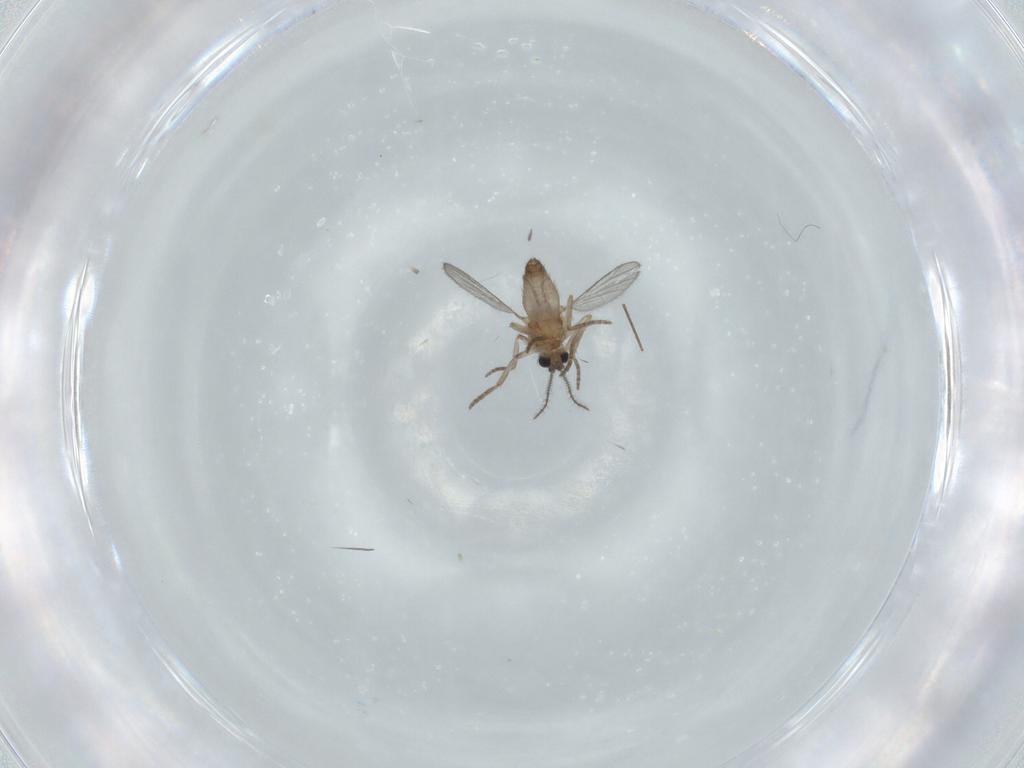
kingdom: Animalia
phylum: Arthropoda
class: Insecta
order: Diptera
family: Ceratopogonidae
